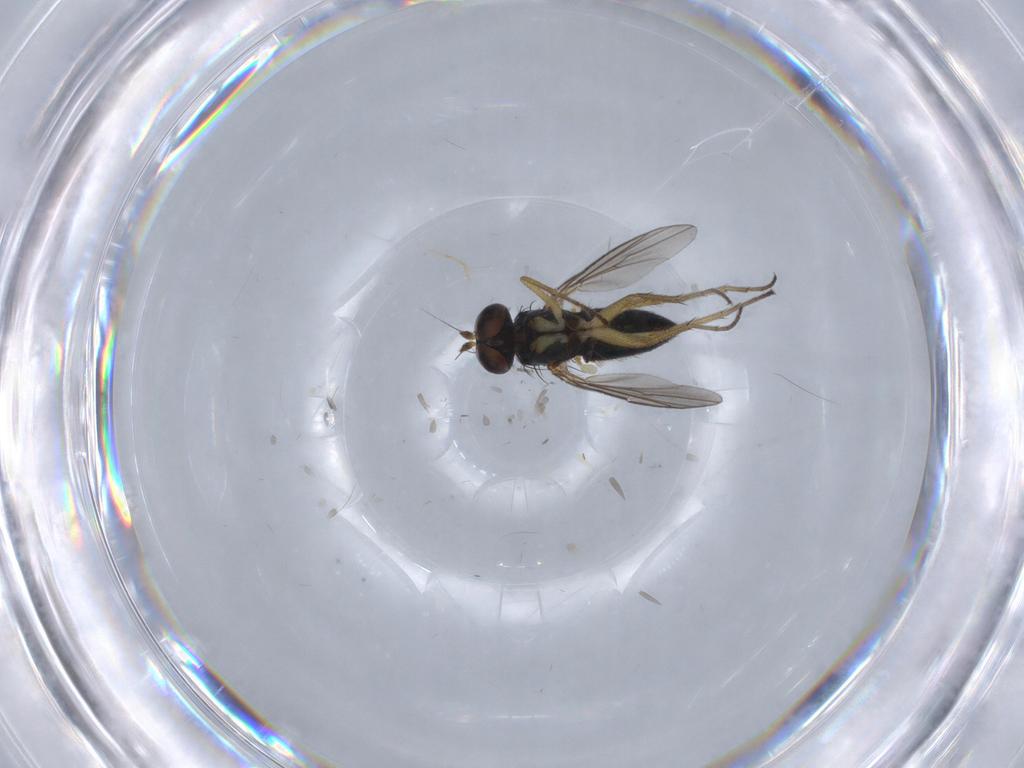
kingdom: Animalia
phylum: Arthropoda
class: Insecta
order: Diptera
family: Dolichopodidae
